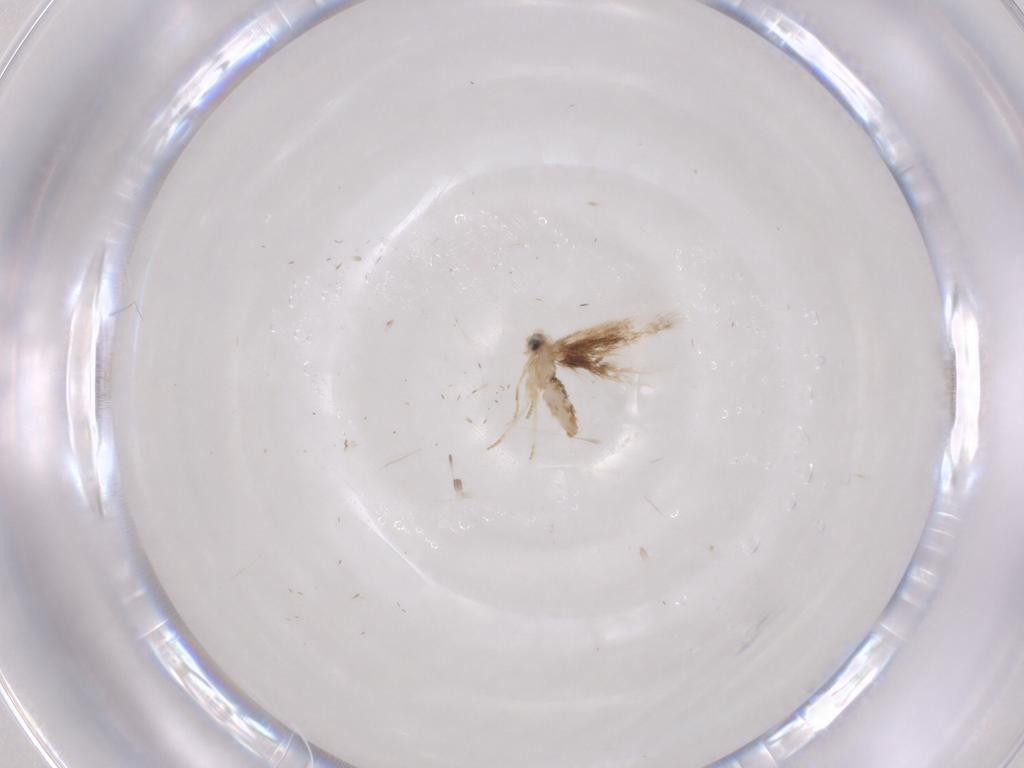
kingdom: Animalia
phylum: Arthropoda
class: Insecta
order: Lepidoptera
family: Nepticulidae
